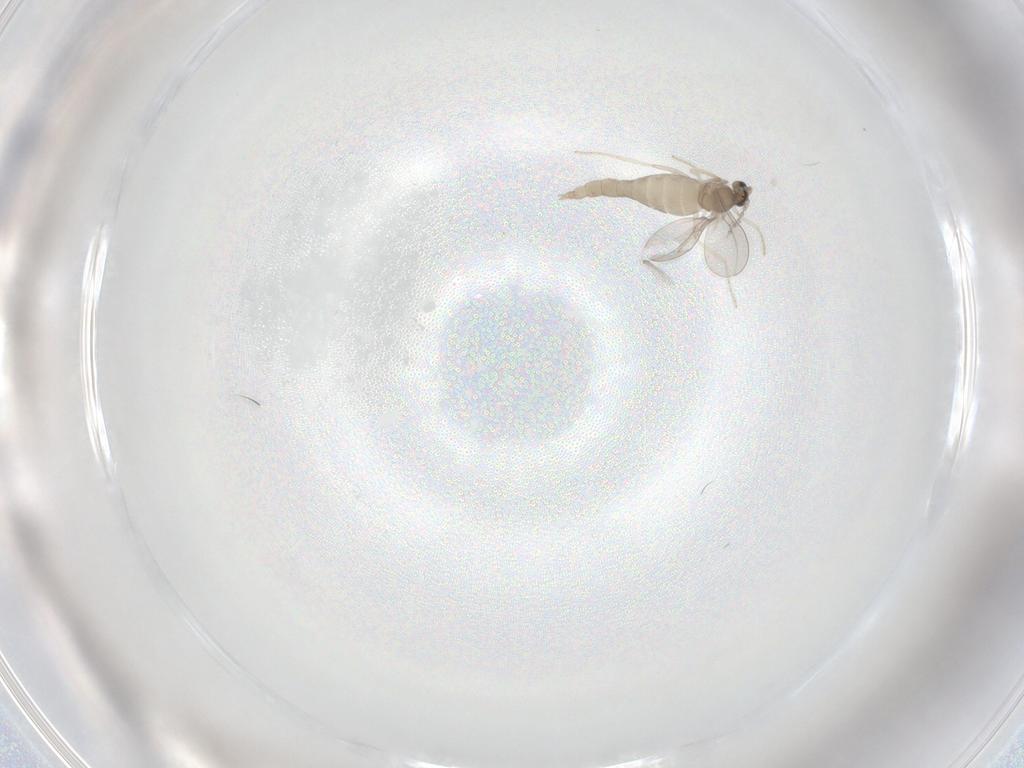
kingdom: Animalia
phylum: Arthropoda
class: Insecta
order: Diptera
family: Cecidomyiidae
